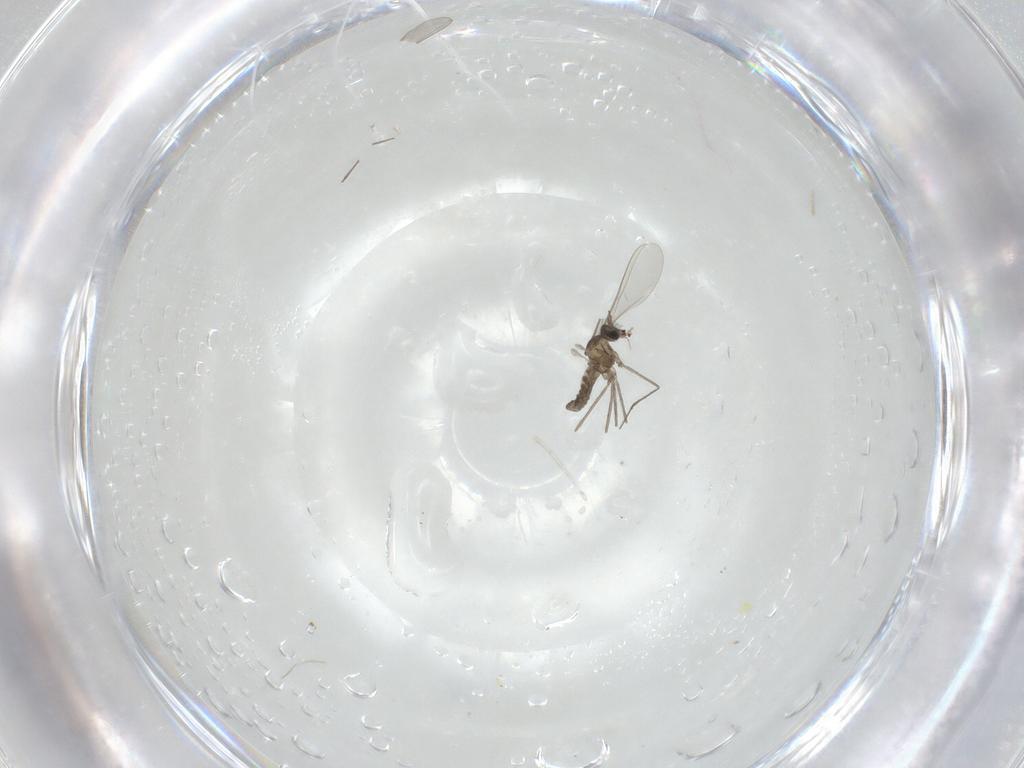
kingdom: Animalia
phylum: Arthropoda
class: Insecta
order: Diptera
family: Cecidomyiidae
